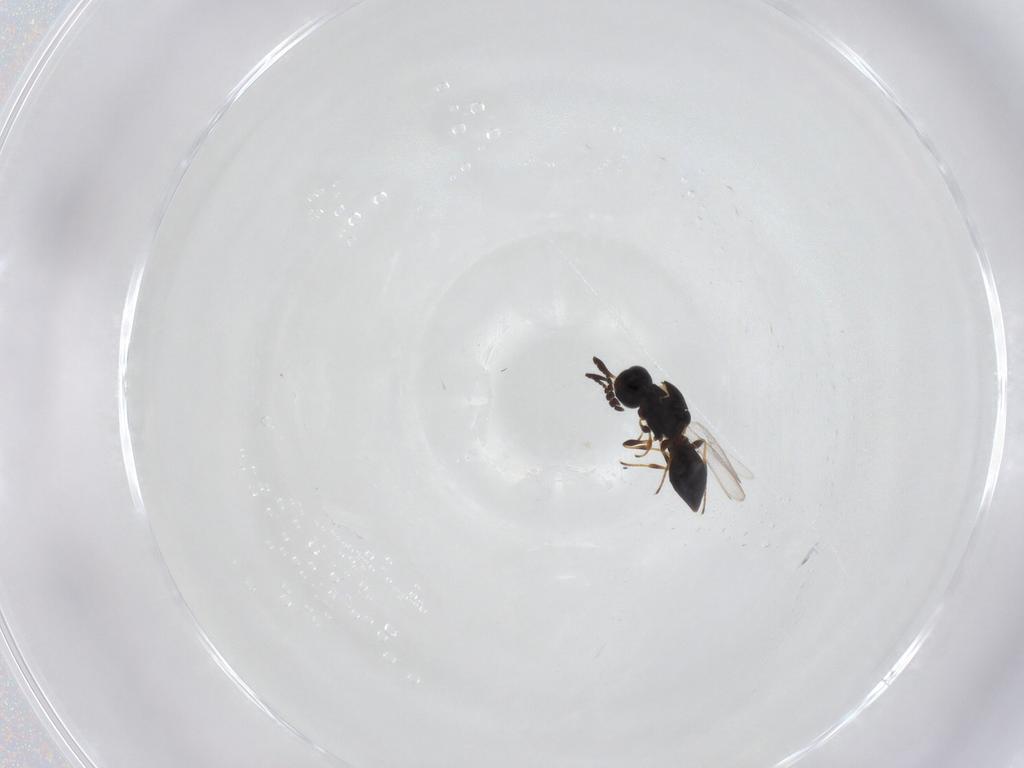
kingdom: Animalia
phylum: Arthropoda
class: Insecta
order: Hymenoptera
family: Platygastridae
